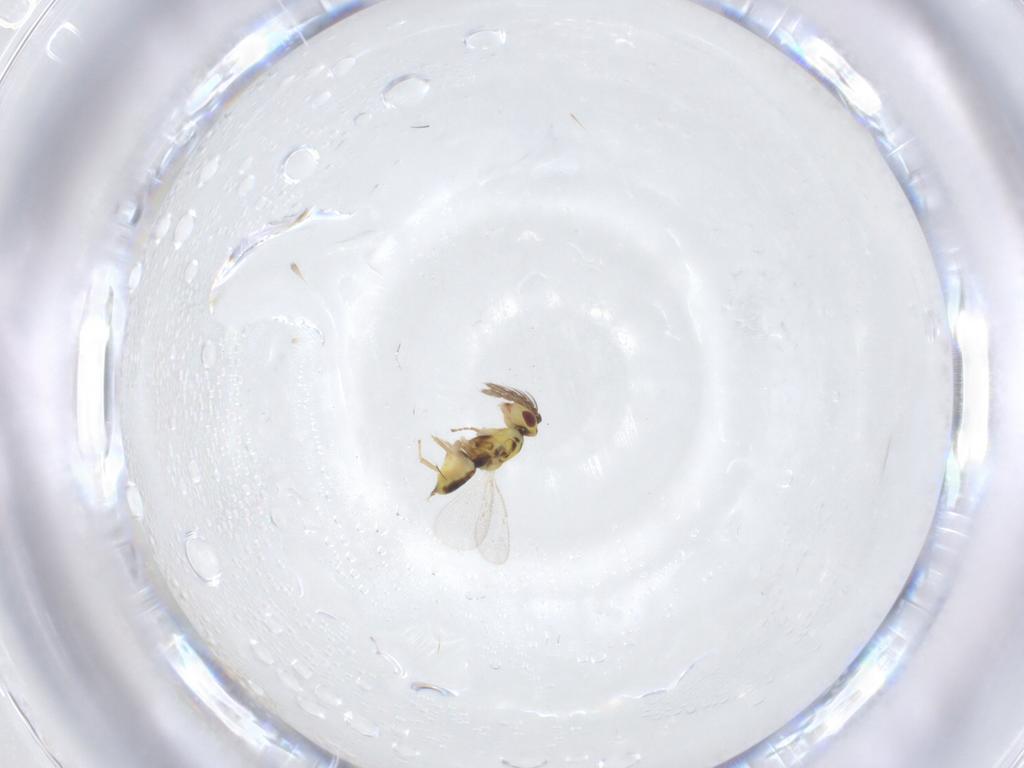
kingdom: Animalia
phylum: Arthropoda
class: Insecta
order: Hymenoptera
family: Eulophidae
